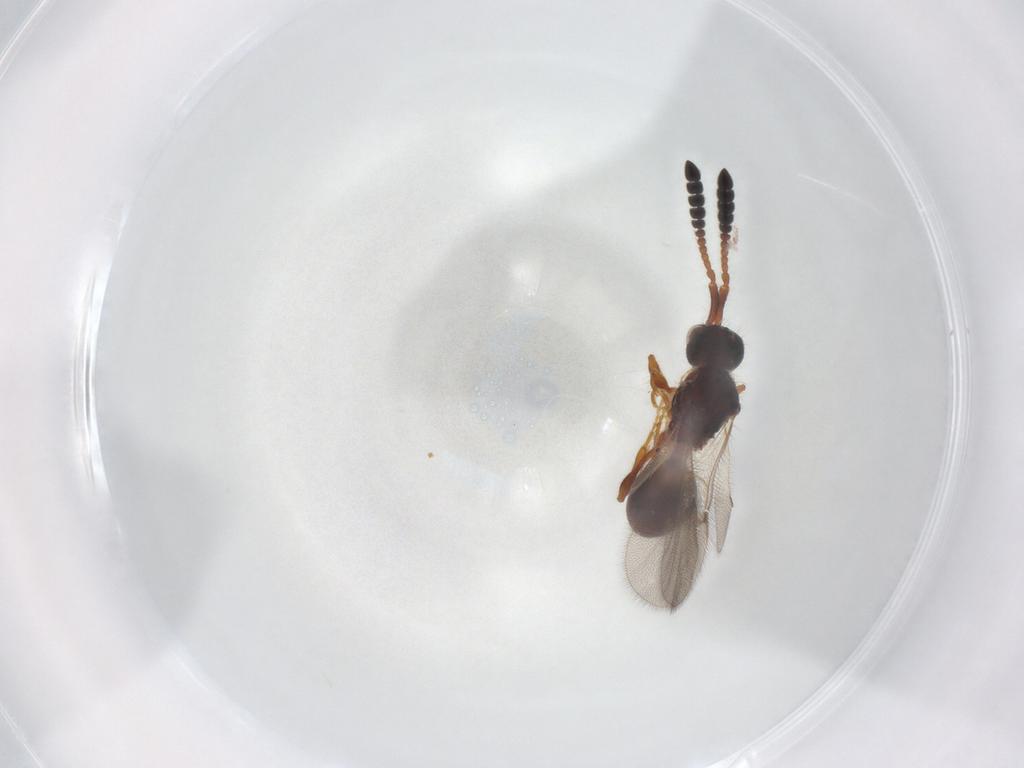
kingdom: Animalia
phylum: Arthropoda
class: Insecta
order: Hymenoptera
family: Diapriidae
